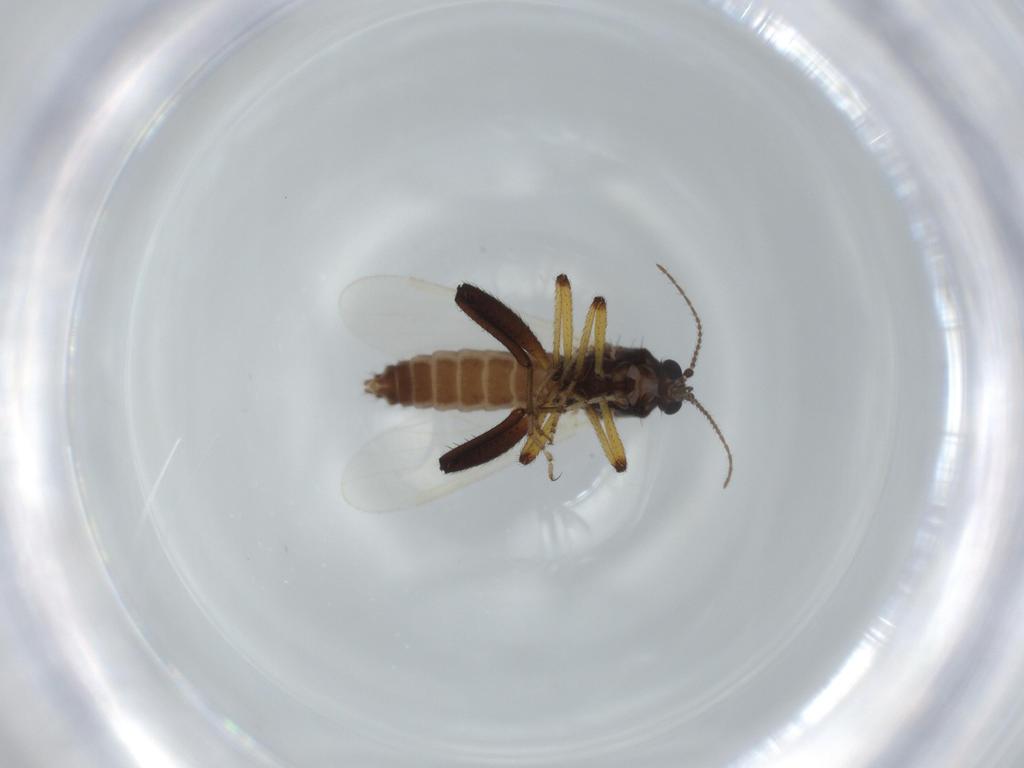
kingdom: Animalia
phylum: Arthropoda
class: Insecta
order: Diptera
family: Ceratopogonidae
